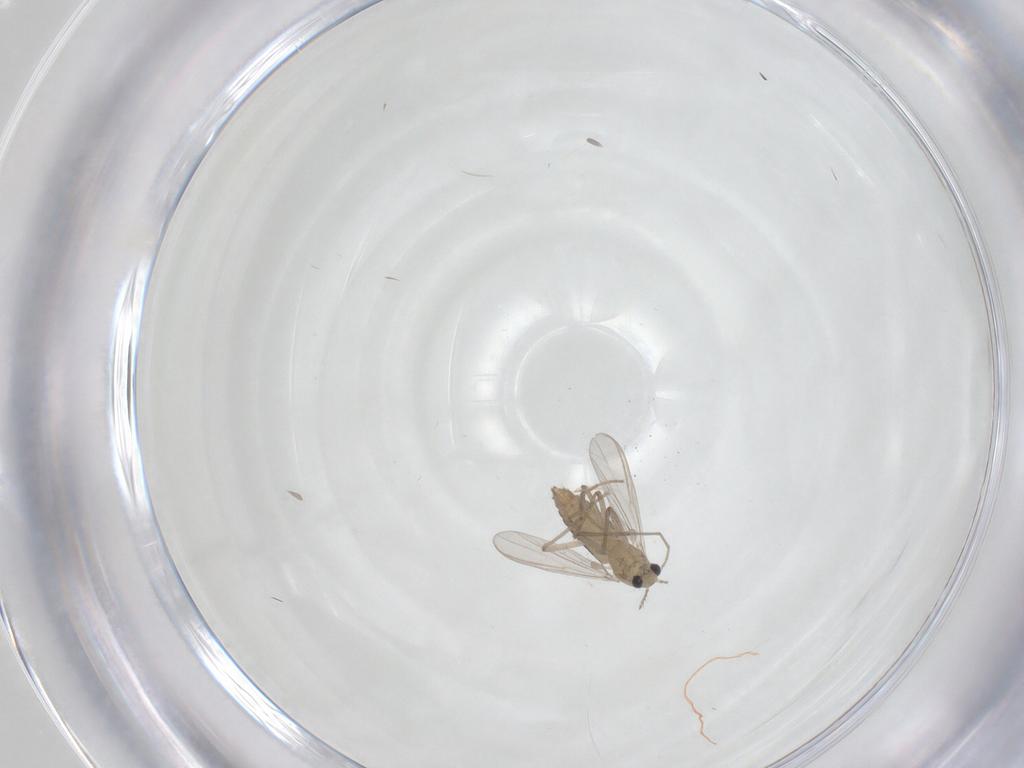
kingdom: Animalia
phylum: Arthropoda
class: Insecta
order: Diptera
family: Chironomidae
